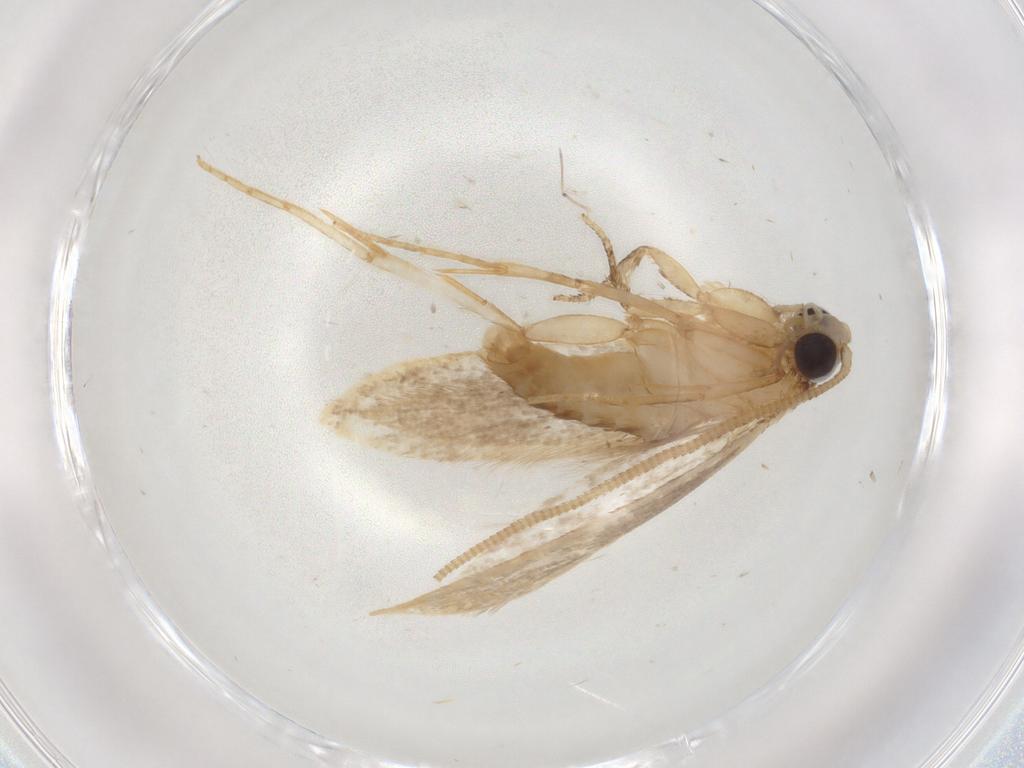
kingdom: Animalia
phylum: Arthropoda
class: Insecta
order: Lepidoptera
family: Tineidae
